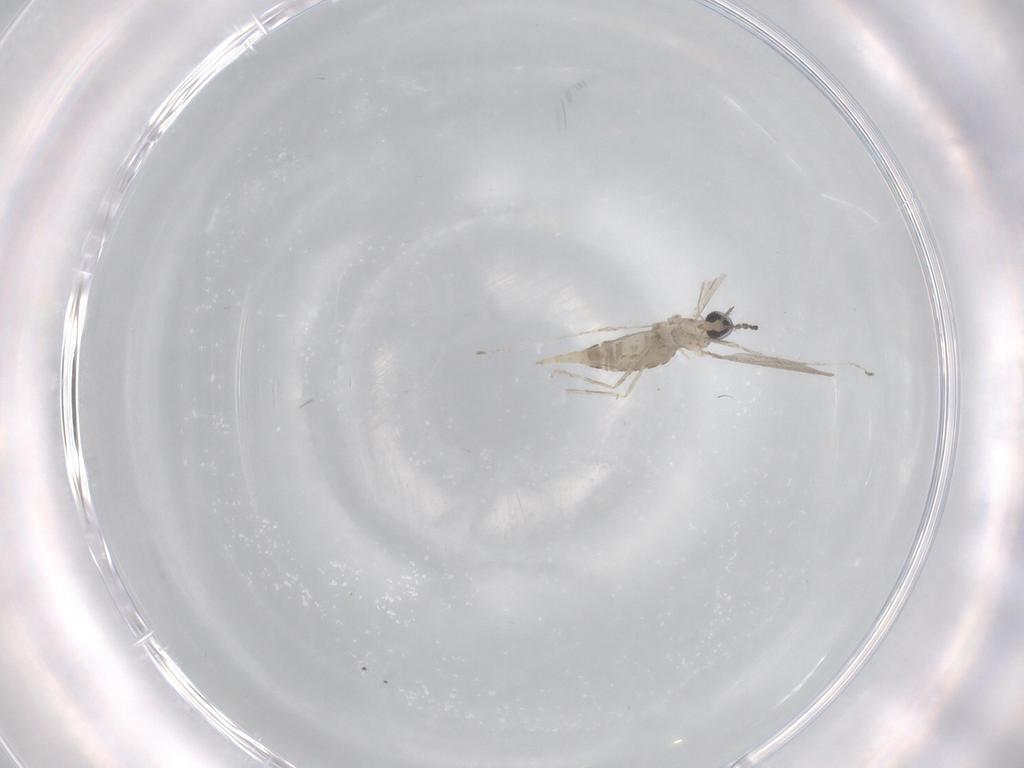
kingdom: Animalia
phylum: Arthropoda
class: Insecta
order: Diptera
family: Cecidomyiidae
